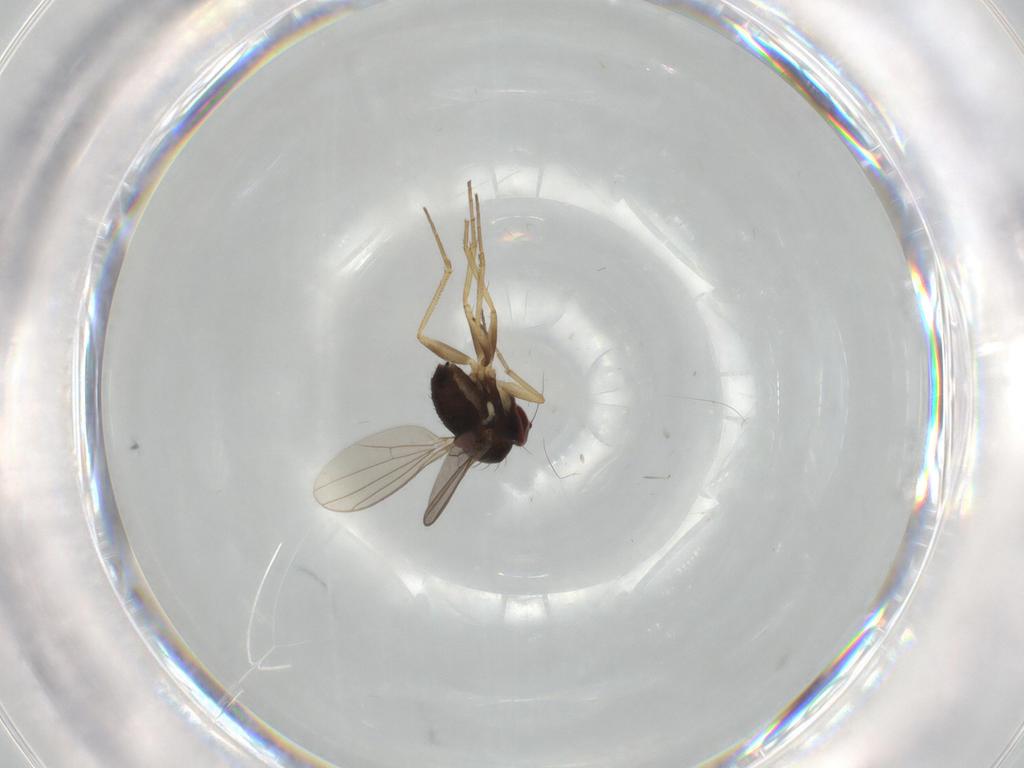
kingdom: Animalia
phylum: Arthropoda
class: Insecta
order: Diptera
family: Dolichopodidae
